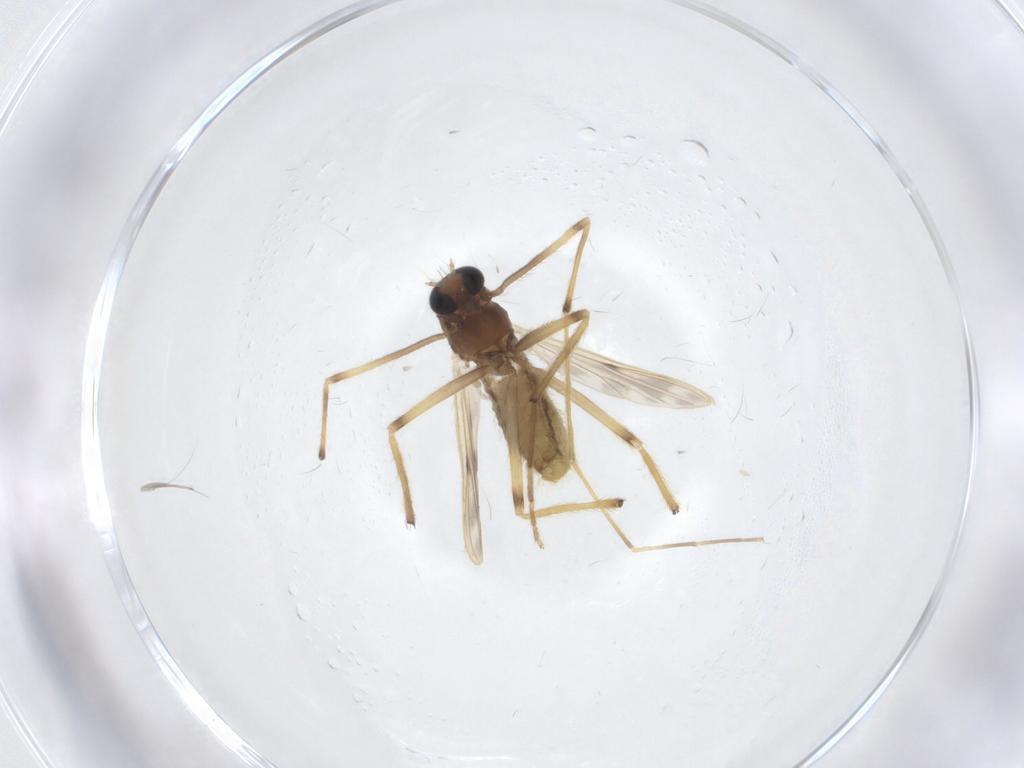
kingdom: Animalia
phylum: Arthropoda
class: Insecta
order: Diptera
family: Chironomidae
